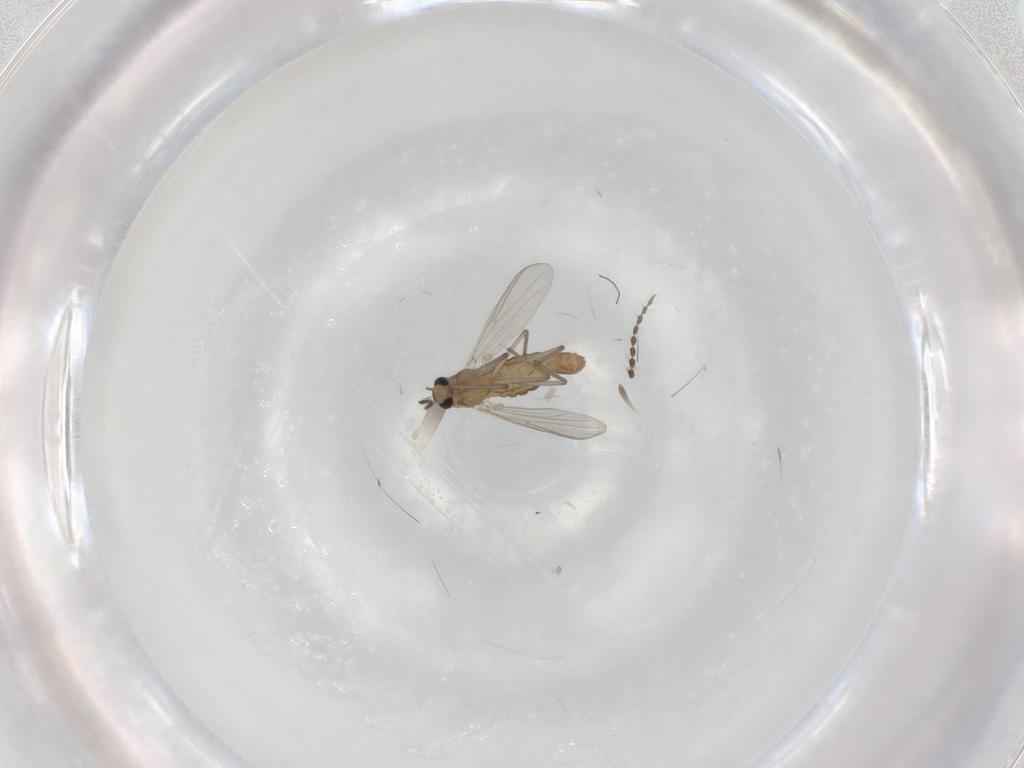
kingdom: Animalia
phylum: Arthropoda
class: Insecta
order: Diptera
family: Chironomidae
